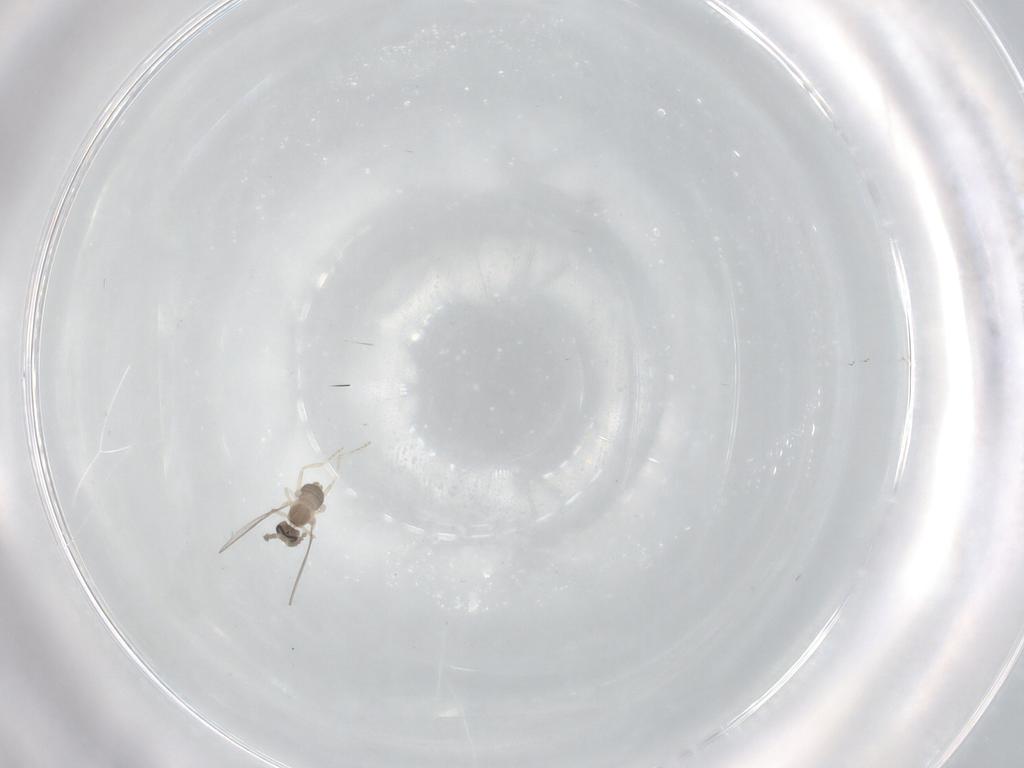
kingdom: Animalia
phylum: Arthropoda
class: Insecta
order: Diptera
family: Cecidomyiidae
